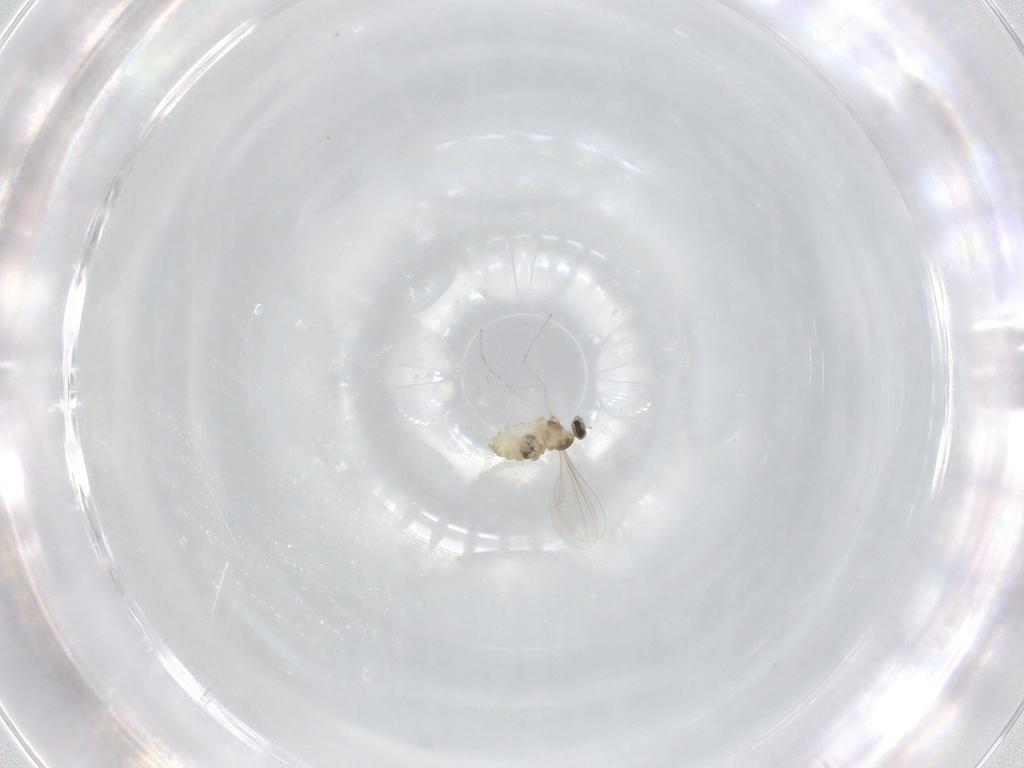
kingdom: Animalia
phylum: Arthropoda
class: Insecta
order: Diptera
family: Cecidomyiidae
